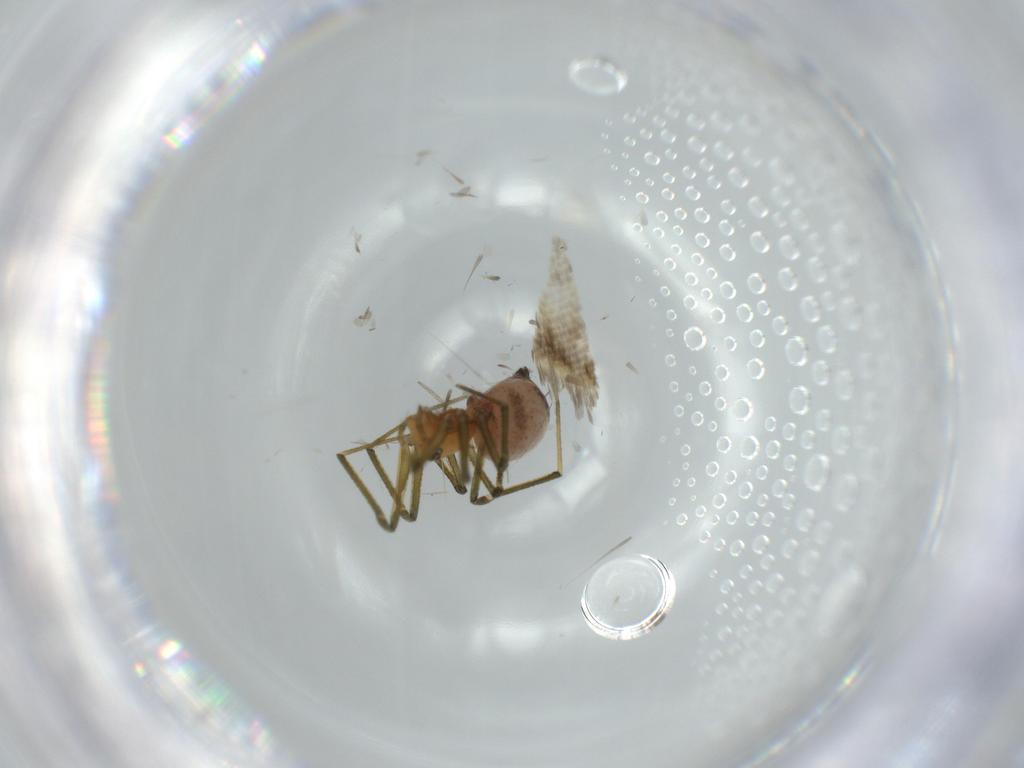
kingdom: Animalia
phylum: Arthropoda
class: Arachnida
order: Araneae
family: Linyphiidae
